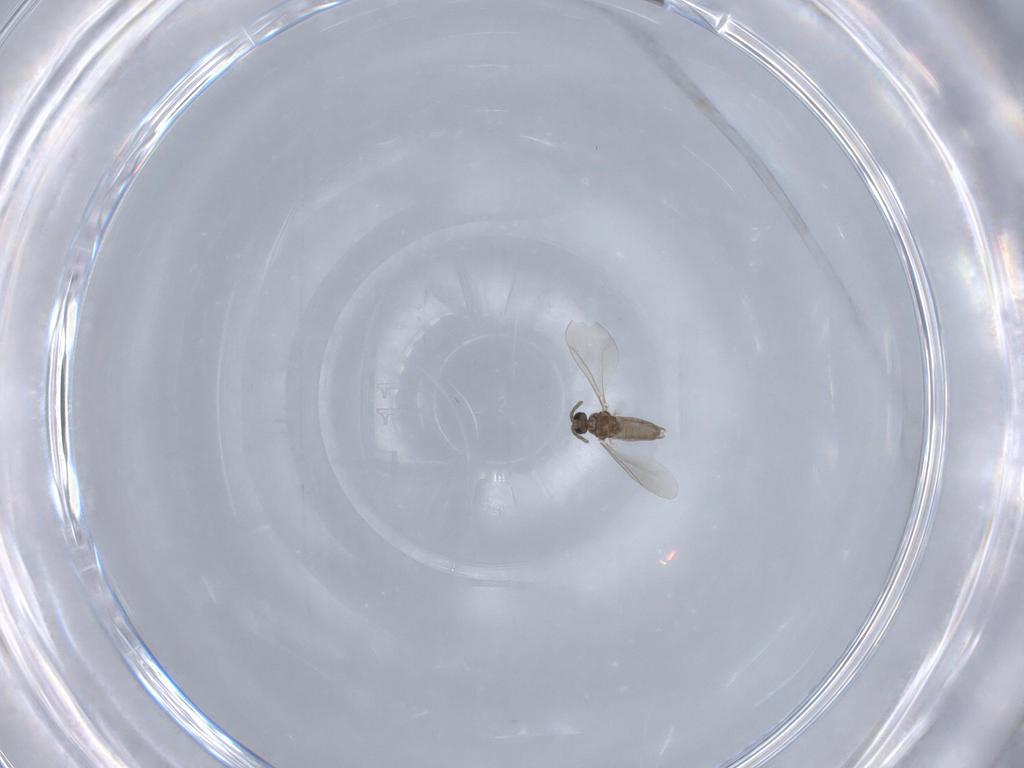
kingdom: Animalia
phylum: Arthropoda
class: Insecta
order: Diptera
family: Cecidomyiidae
